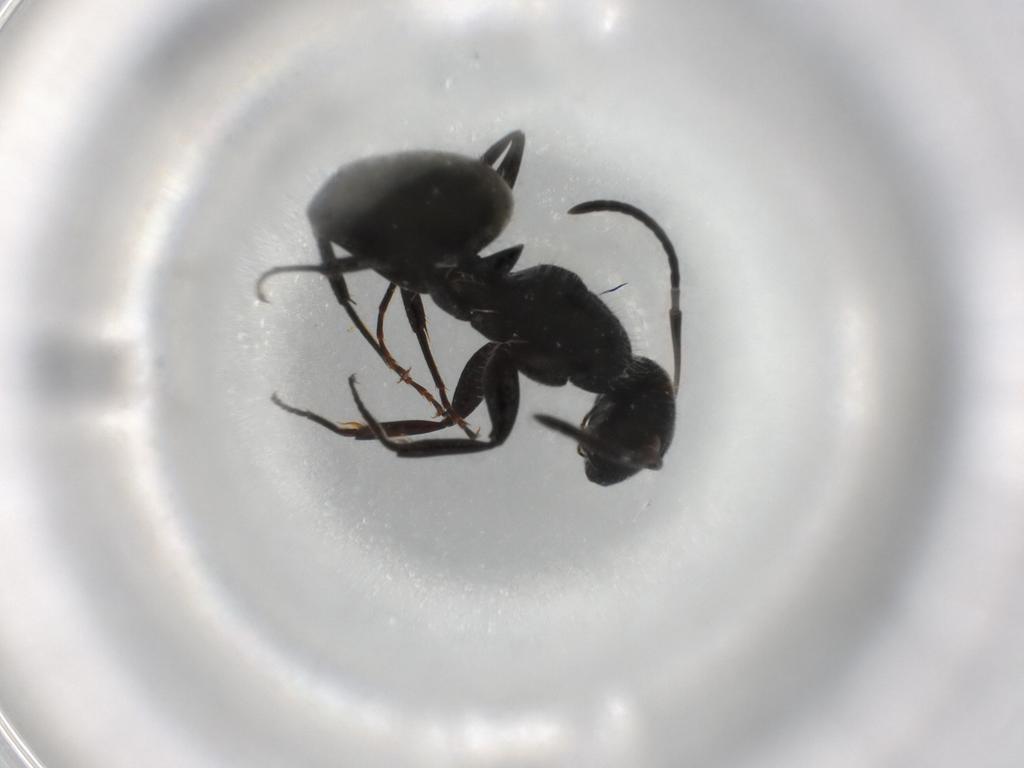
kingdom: Animalia
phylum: Arthropoda
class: Insecta
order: Hymenoptera
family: Formicidae
